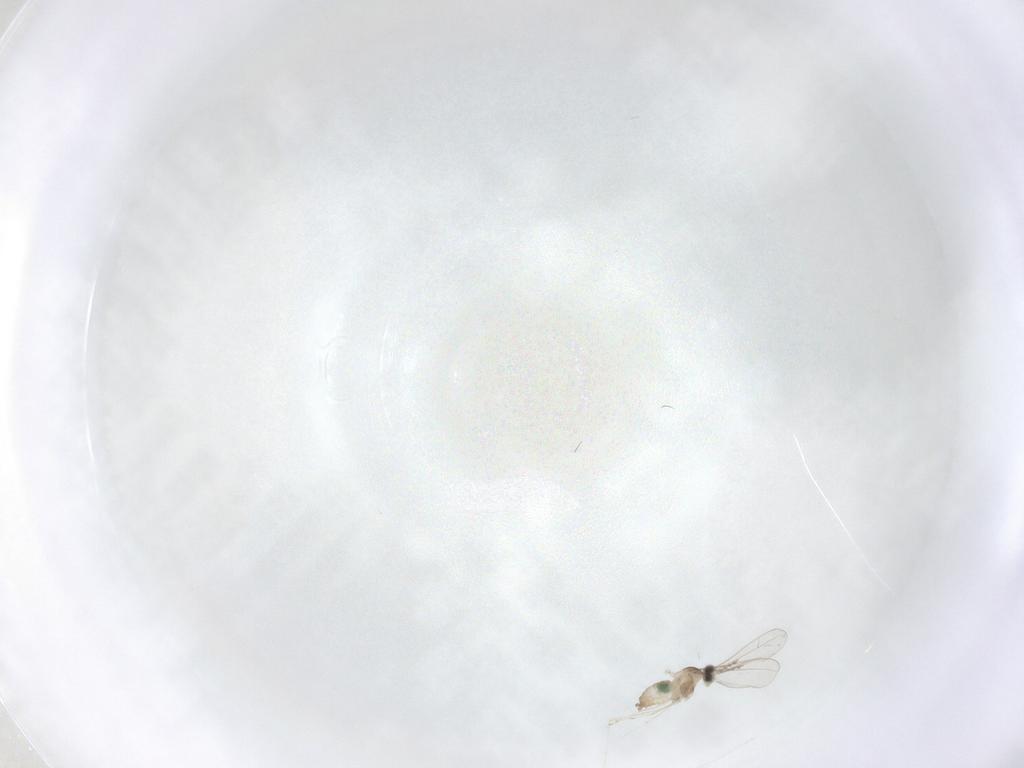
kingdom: Animalia
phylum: Arthropoda
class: Insecta
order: Diptera
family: Cecidomyiidae
